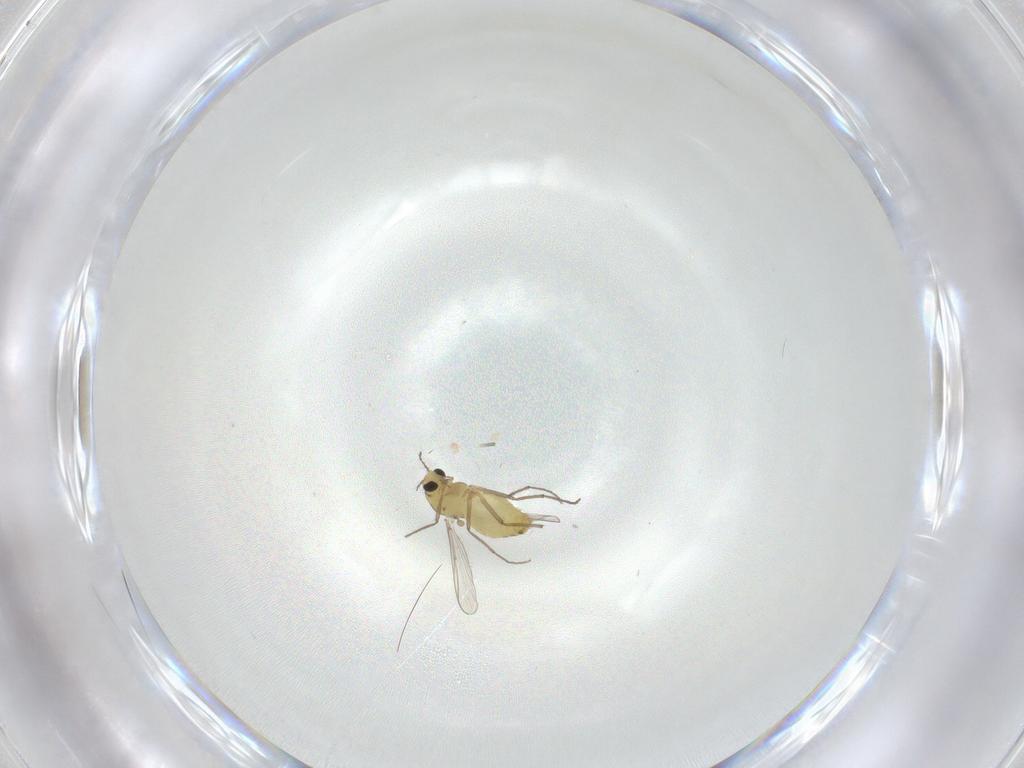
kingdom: Animalia
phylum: Arthropoda
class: Insecta
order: Diptera
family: Chironomidae
